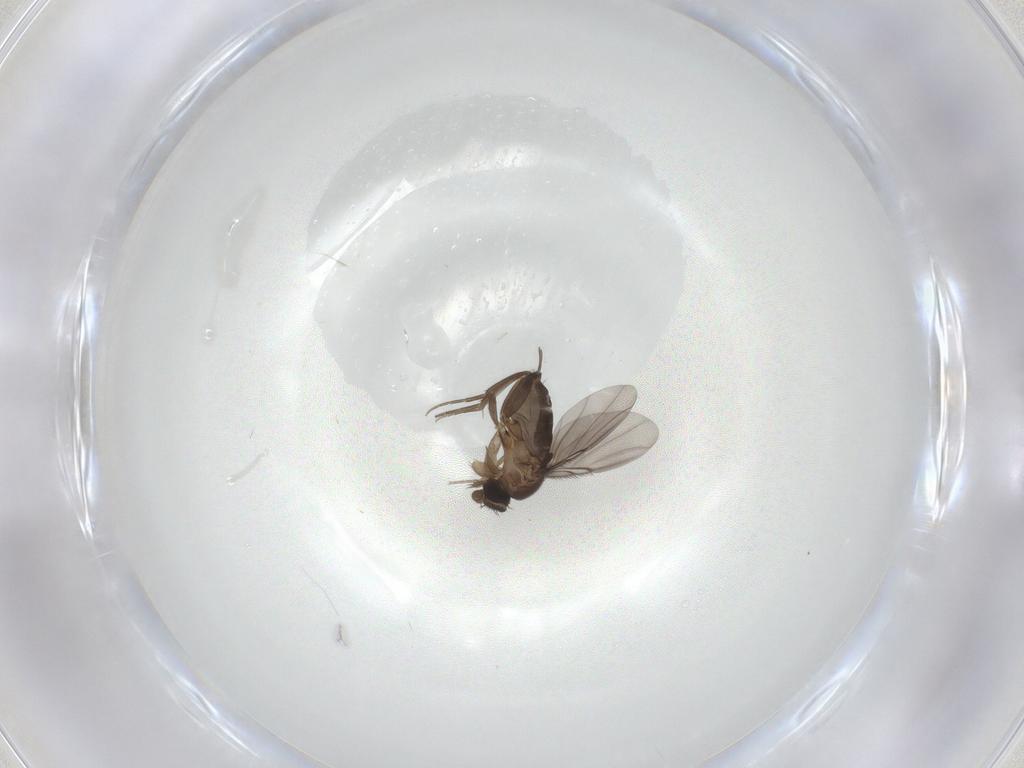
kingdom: Animalia
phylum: Arthropoda
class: Insecta
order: Diptera
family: Phoridae
